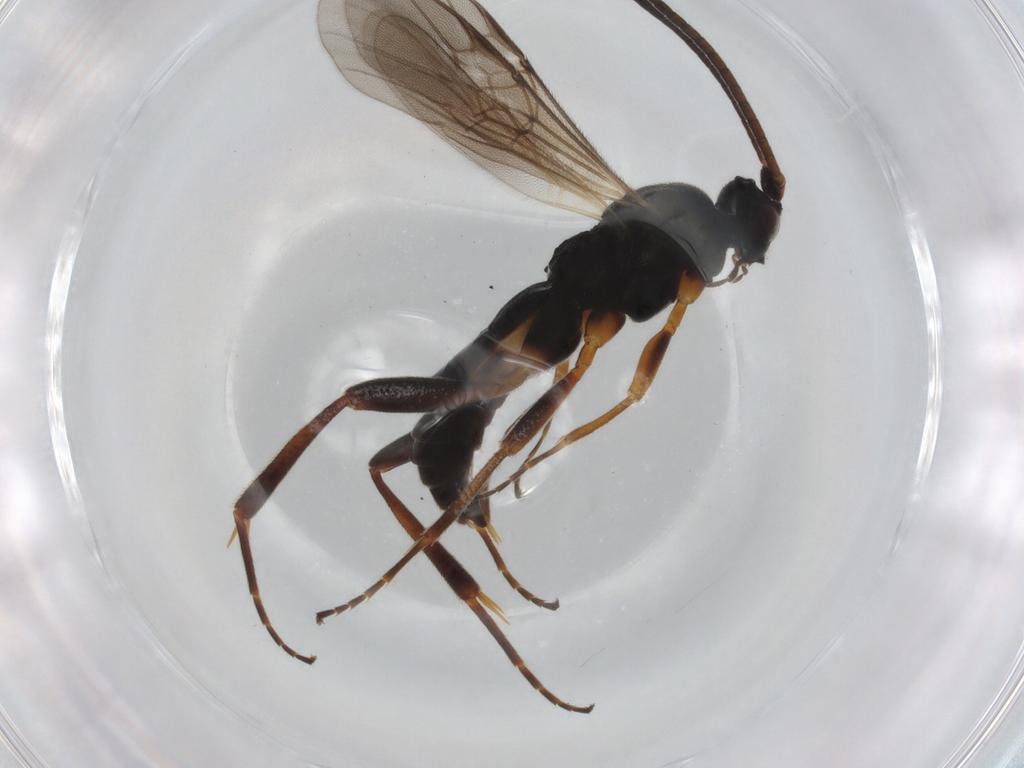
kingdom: Animalia
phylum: Arthropoda
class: Insecta
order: Hymenoptera
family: Braconidae
